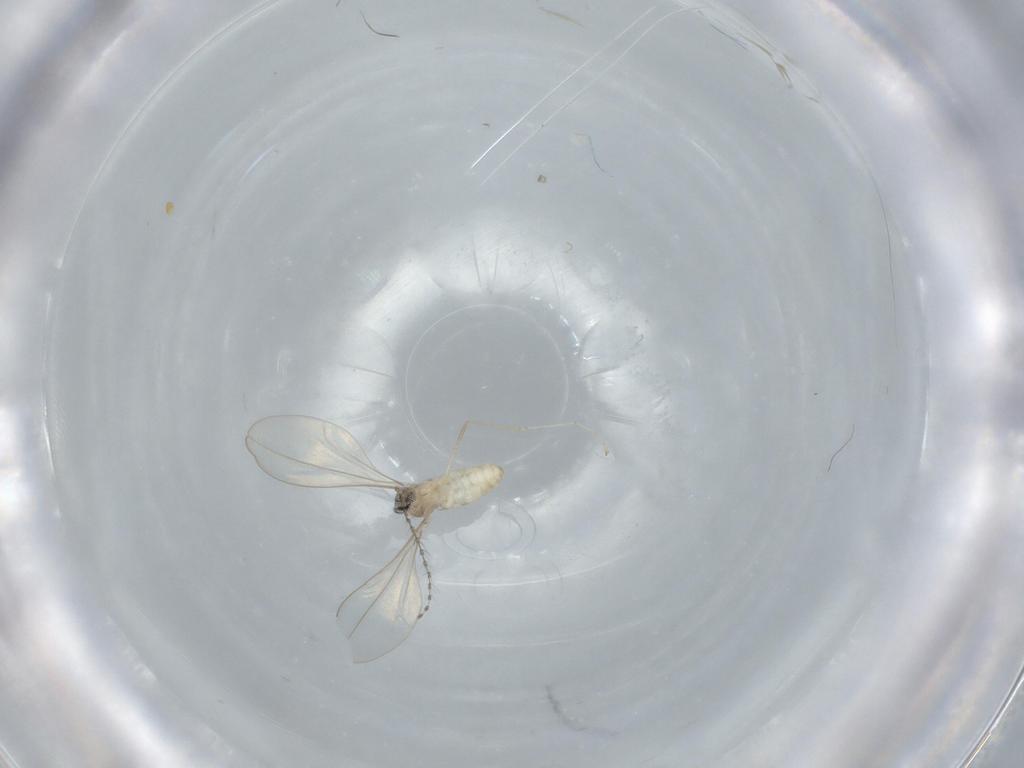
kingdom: Animalia
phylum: Arthropoda
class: Insecta
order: Diptera
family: Cecidomyiidae
